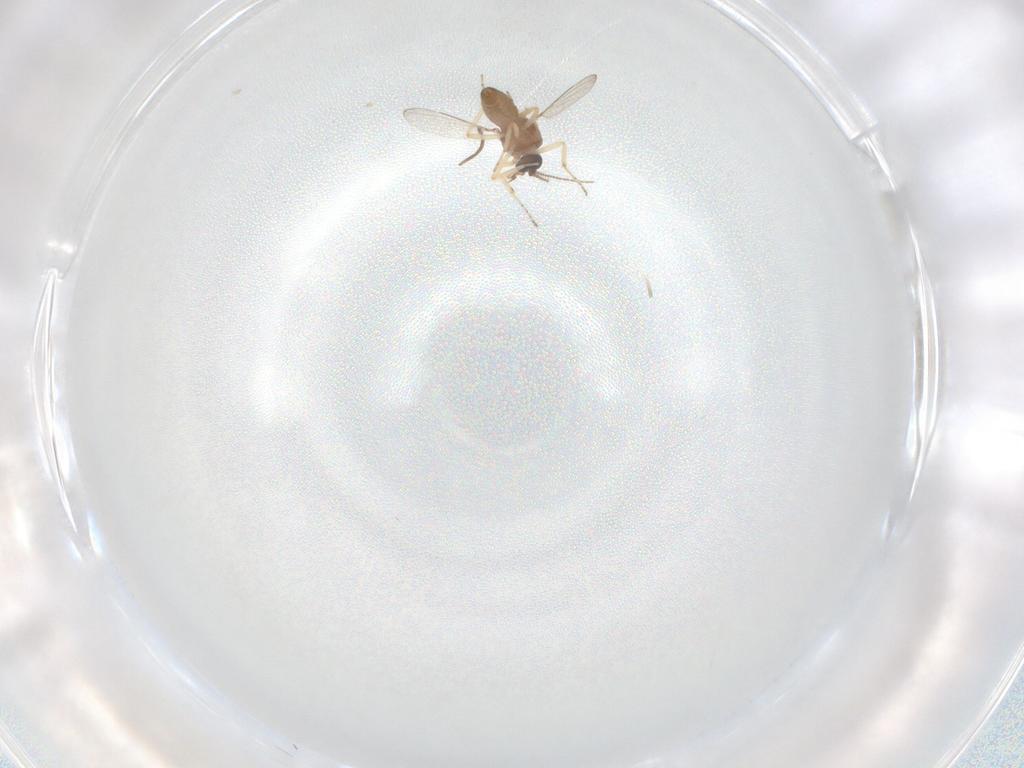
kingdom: Animalia
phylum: Arthropoda
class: Insecta
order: Diptera
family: Ceratopogonidae
